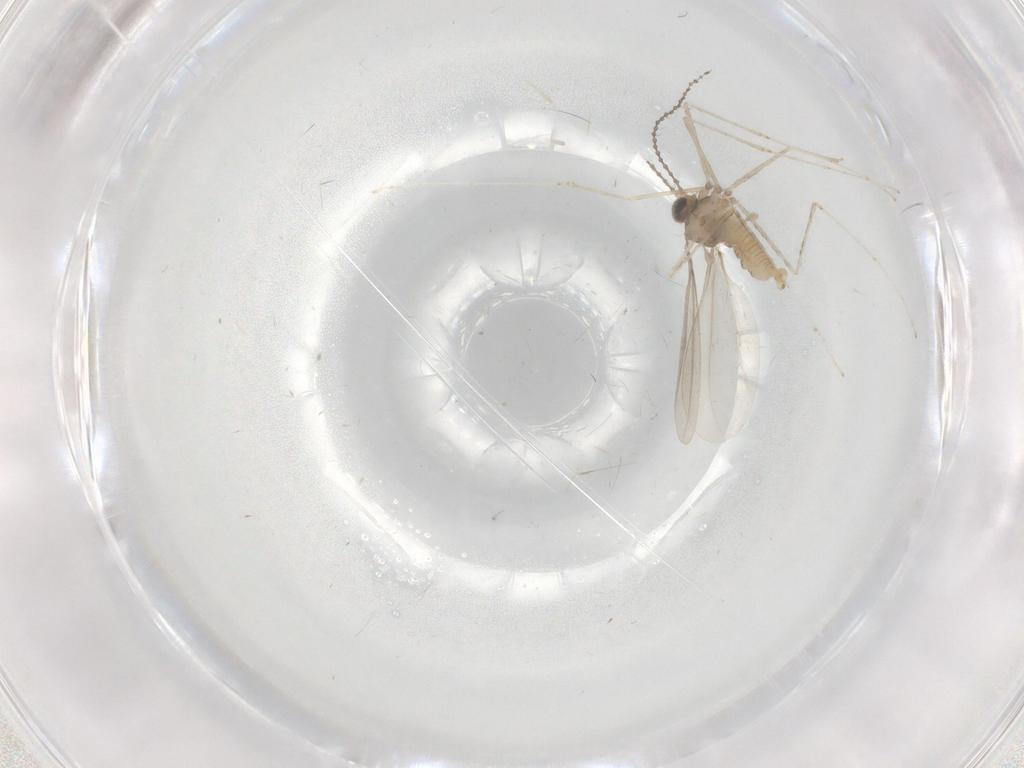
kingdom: Animalia
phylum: Arthropoda
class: Insecta
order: Diptera
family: Cecidomyiidae
